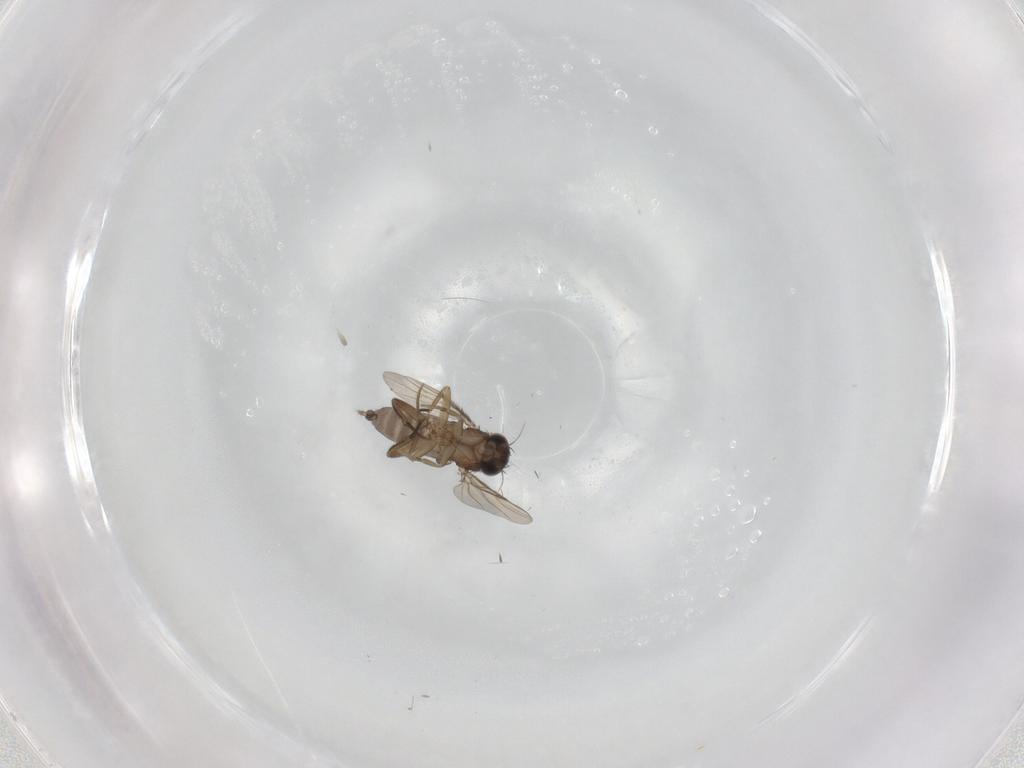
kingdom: Animalia
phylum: Arthropoda
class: Insecta
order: Diptera
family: Phoridae
